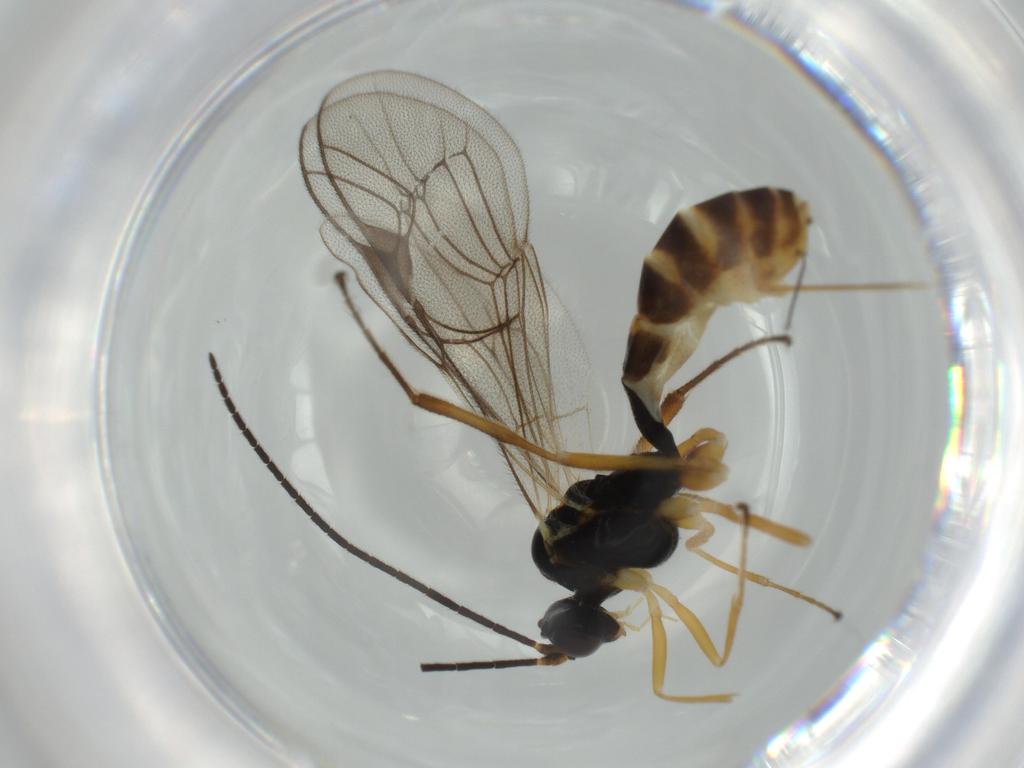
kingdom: Animalia
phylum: Arthropoda
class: Insecta
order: Hymenoptera
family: Ichneumonidae
